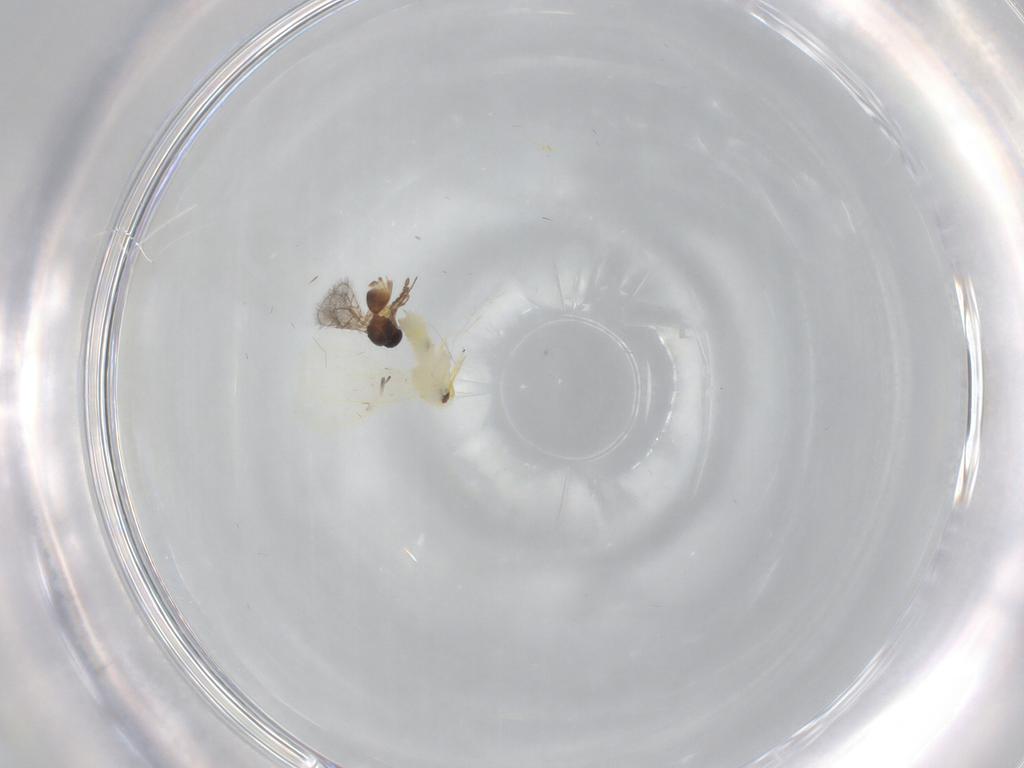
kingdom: Animalia
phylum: Arthropoda
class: Insecta
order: Hemiptera
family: Aleyrodidae
